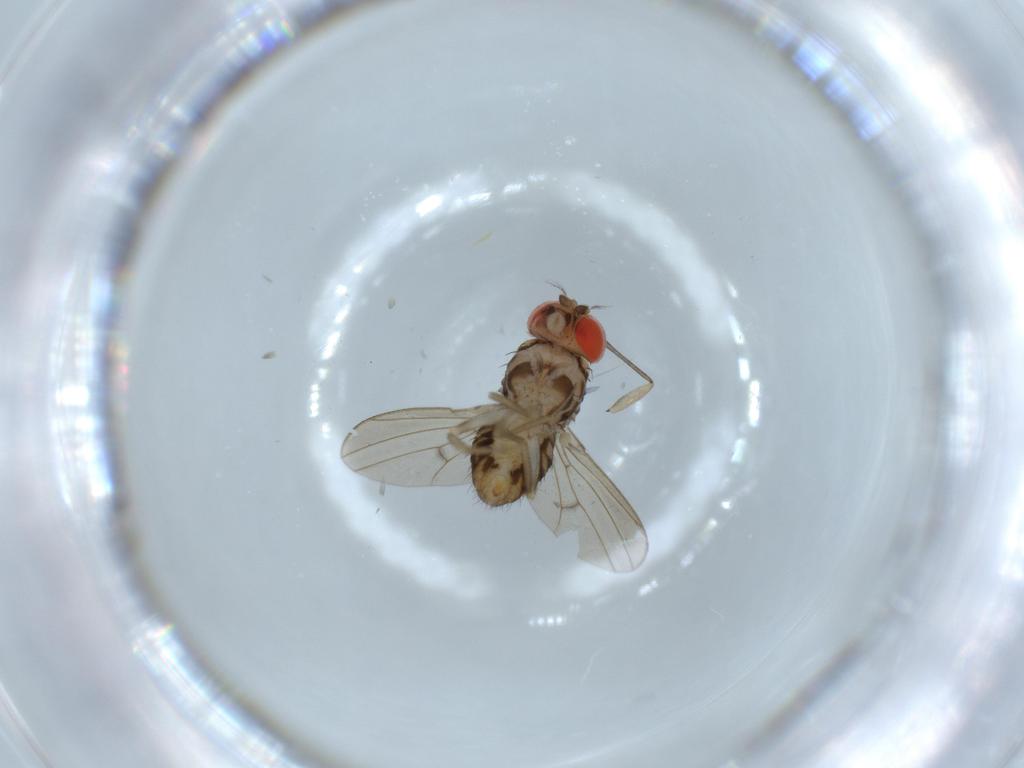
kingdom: Animalia
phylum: Arthropoda
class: Insecta
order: Diptera
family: Drosophilidae
